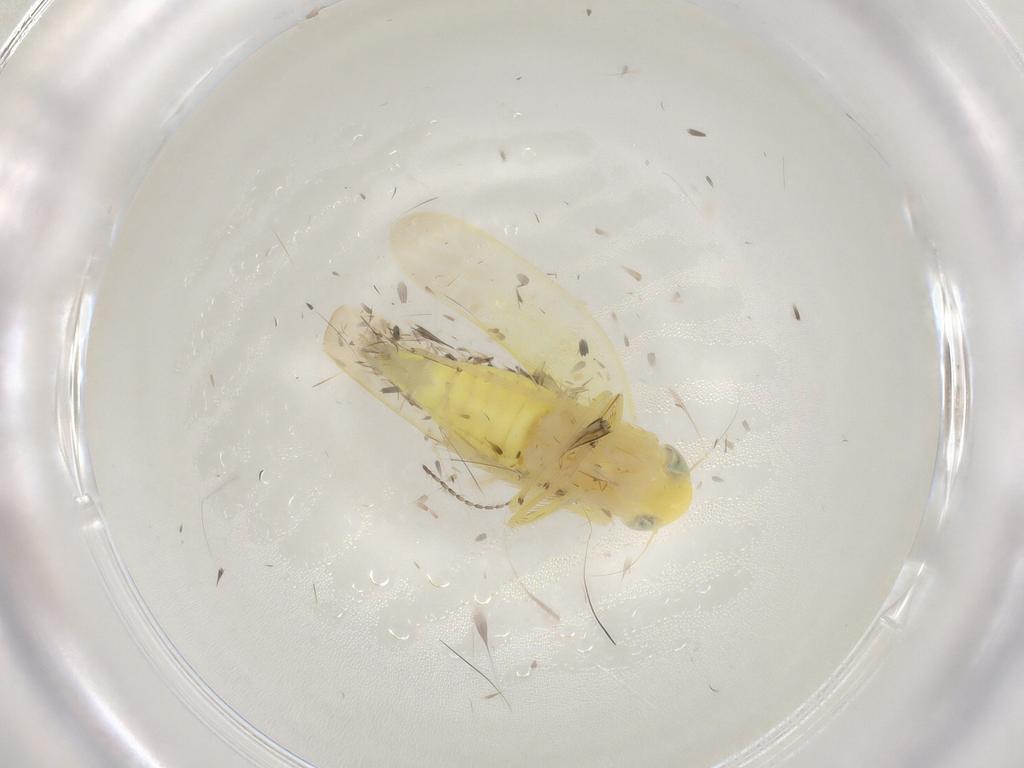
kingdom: Animalia
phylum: Arthropoda
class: Insecta
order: Hemiptera
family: Cicadellidae
